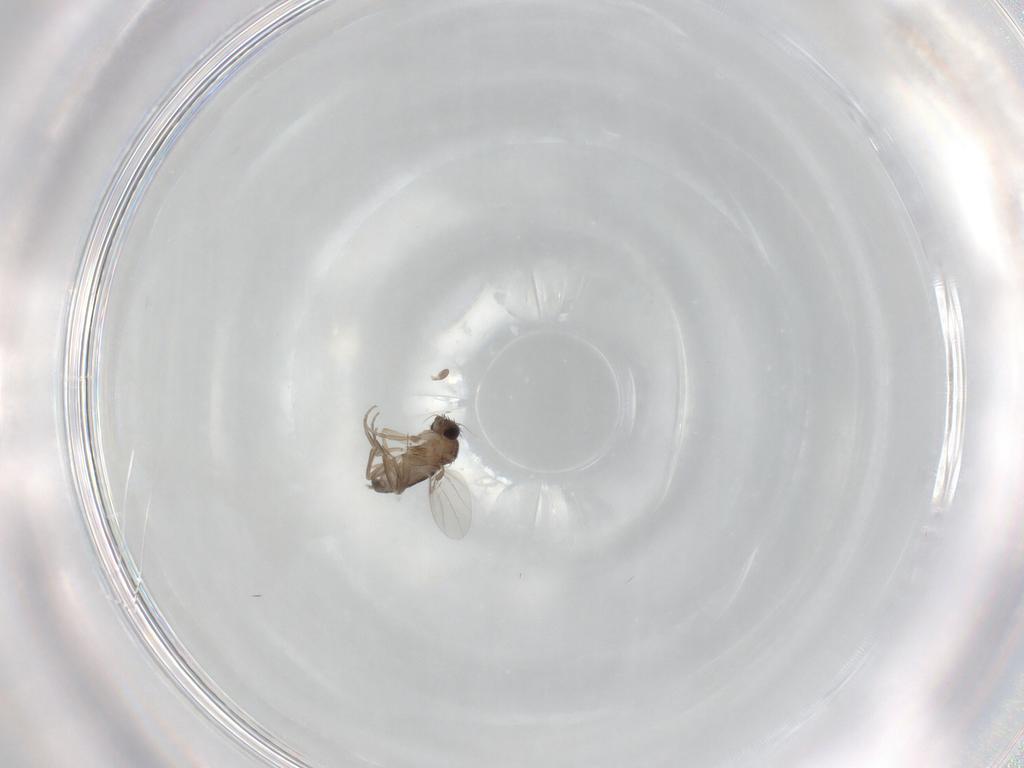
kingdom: Animalia
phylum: Arthropoda
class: Insecta
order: Diptera
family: Phoridae
